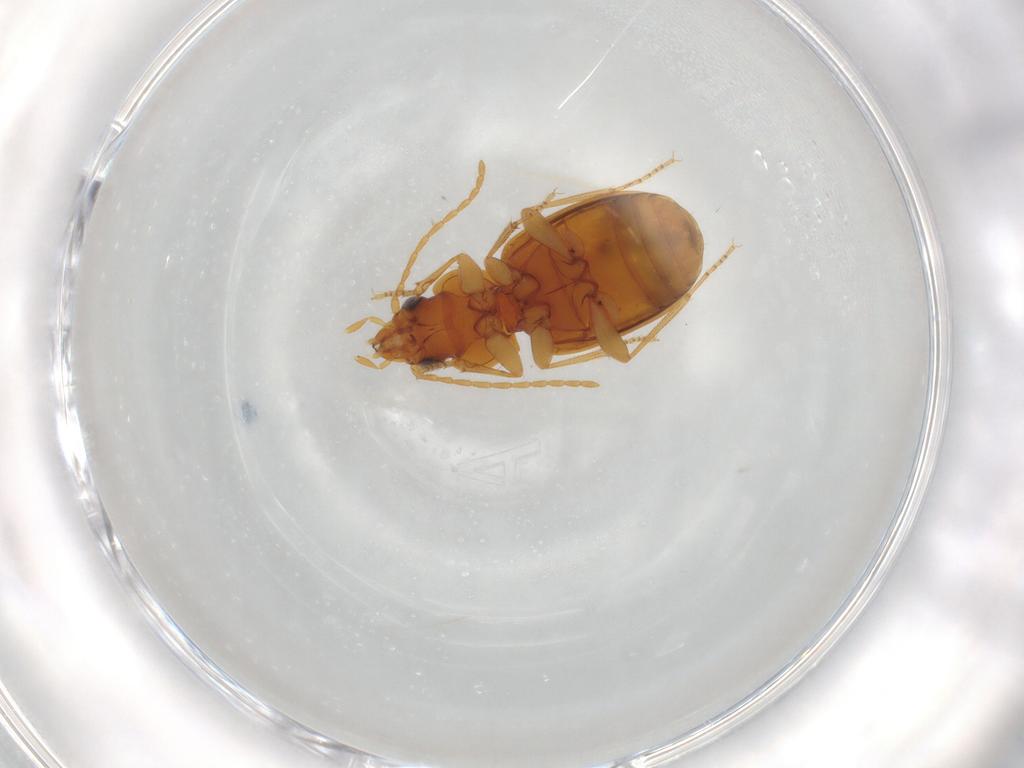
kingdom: Animalia
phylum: Arthropoda
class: Insecta
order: Coleoptera
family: Carabidae
